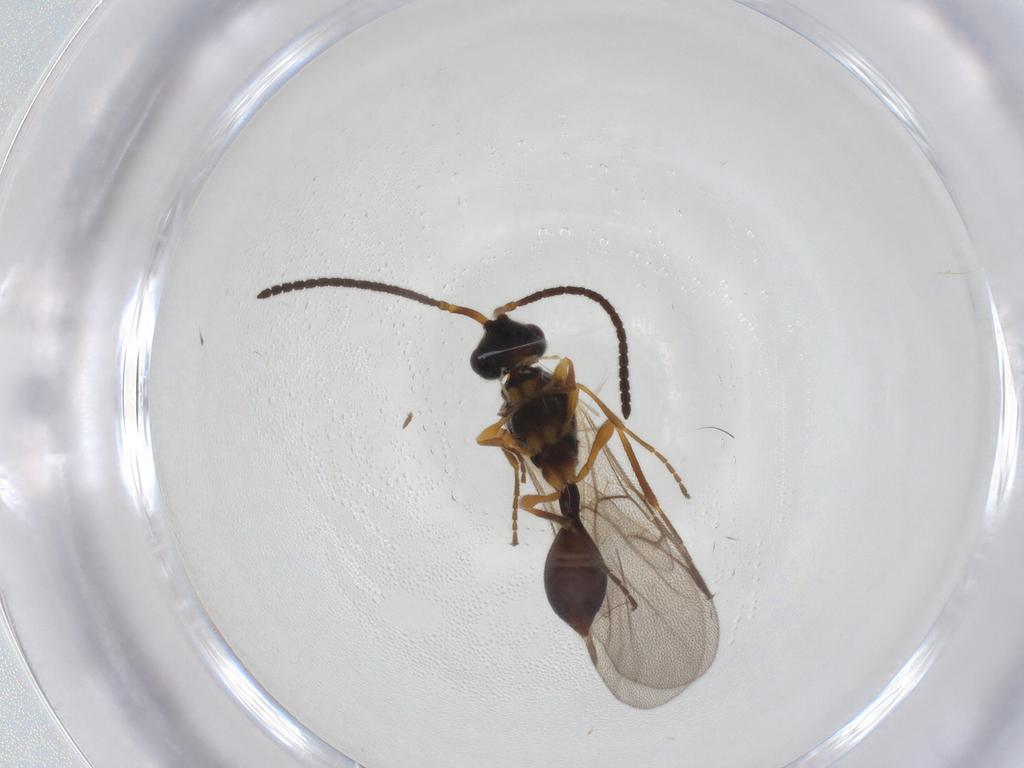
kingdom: Animalia
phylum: Arthropoda
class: Insecta
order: Hymenoptera
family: Diapriidae
